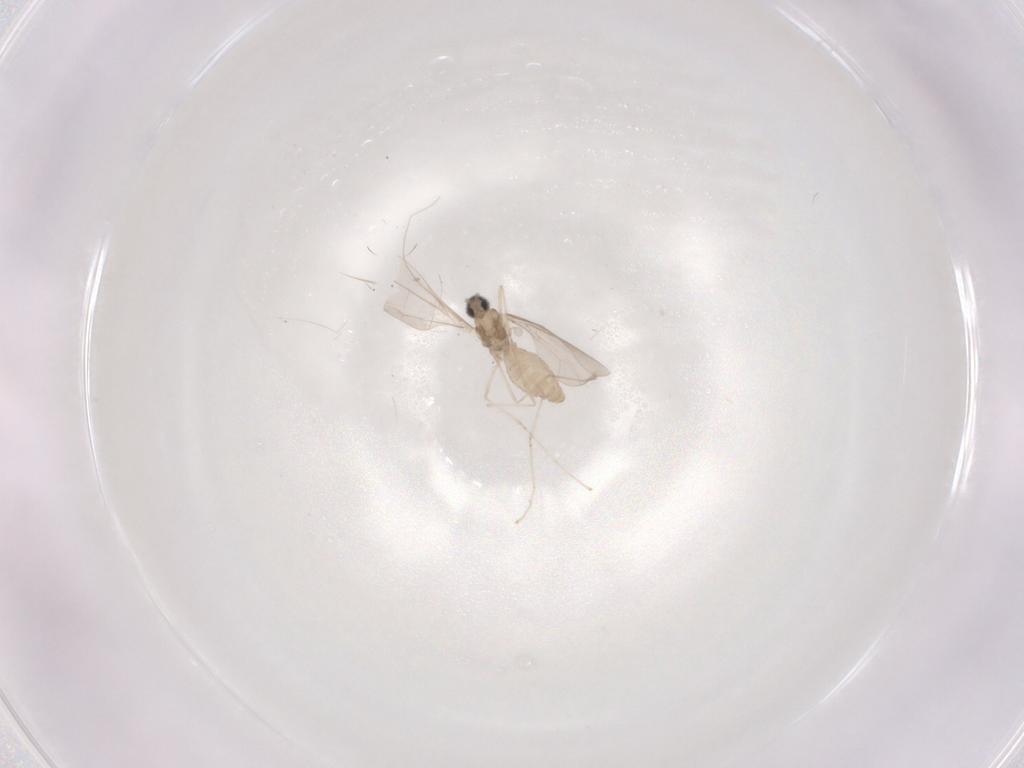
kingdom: Animalia
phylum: Arthropoda
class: Insecta
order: Diptera
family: Cecidomyiidae
